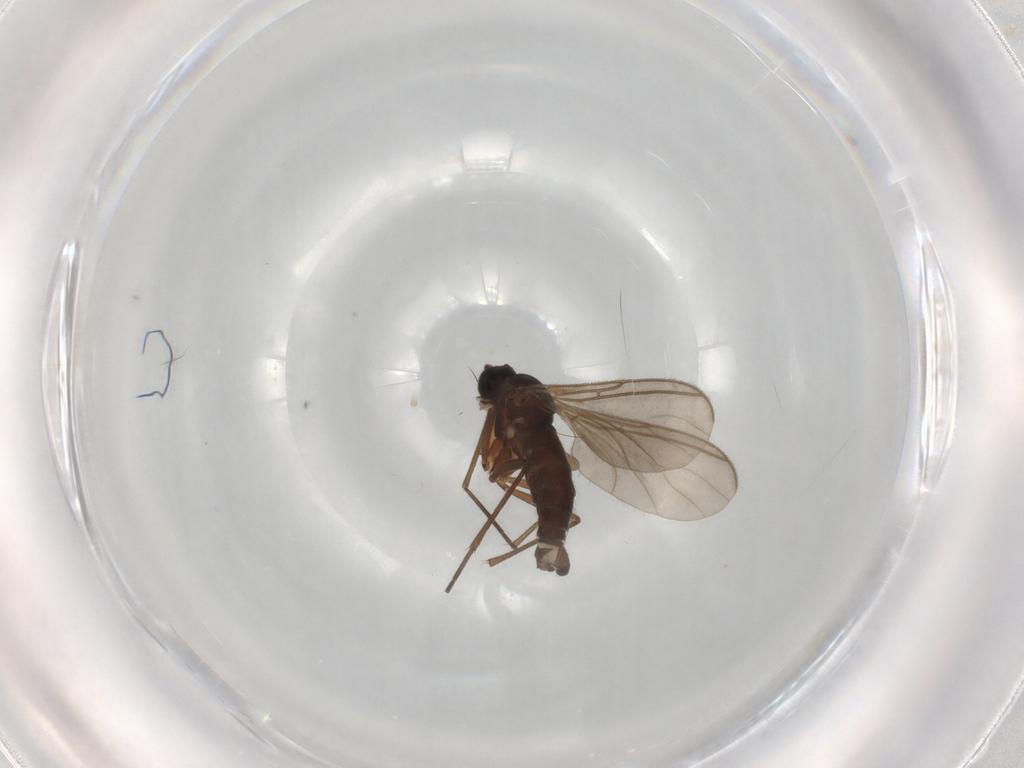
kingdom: Animalia
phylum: Arthropoda
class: Insecta
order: Diptera
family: Sciaridae
